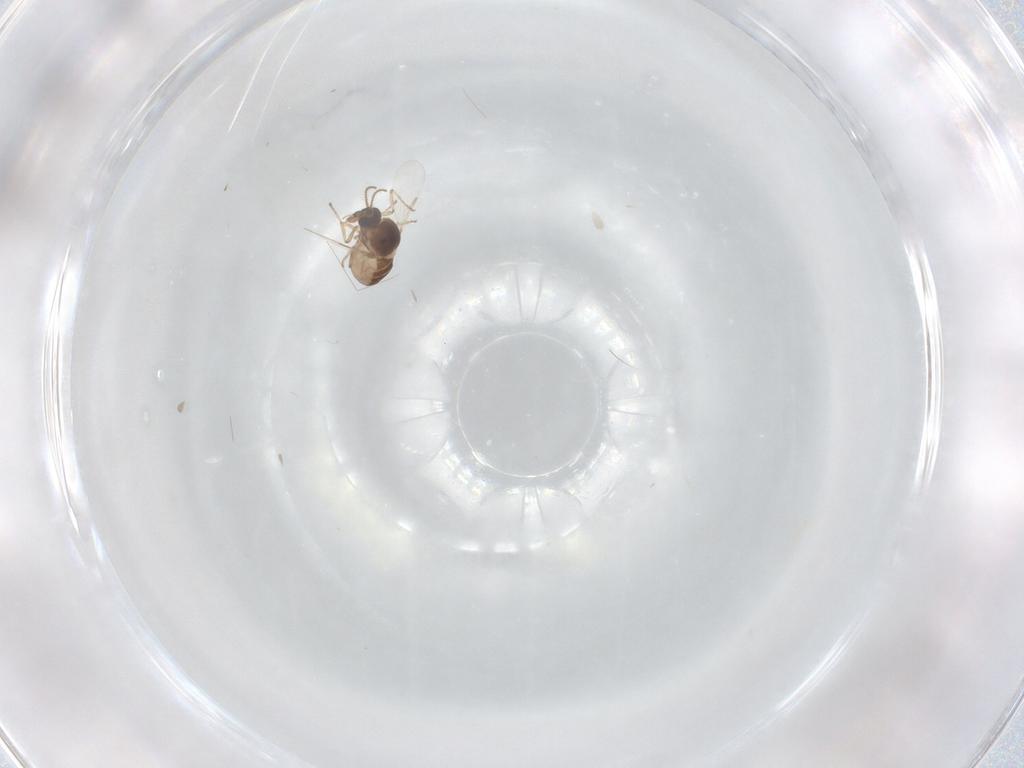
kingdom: Animalia
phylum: Arthropoda
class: Insecta
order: Diptera
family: Ceratopogonidae
